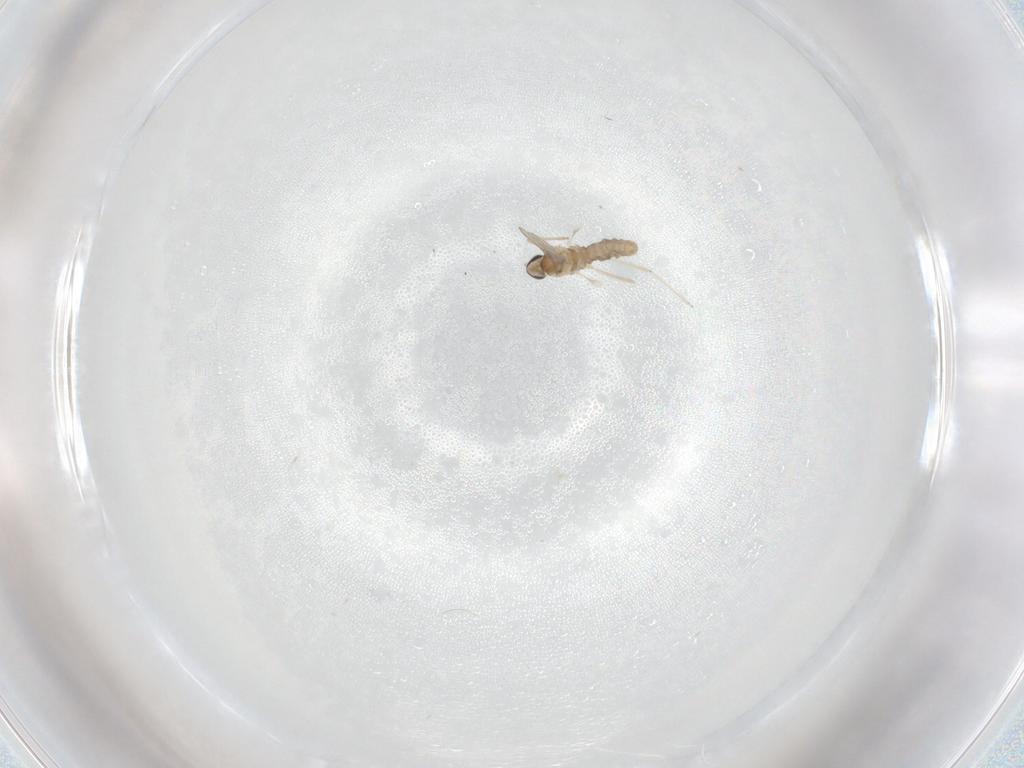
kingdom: Animalia
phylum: Arthropoda
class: Insecta
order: Diptera
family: Cecidomyiidae
